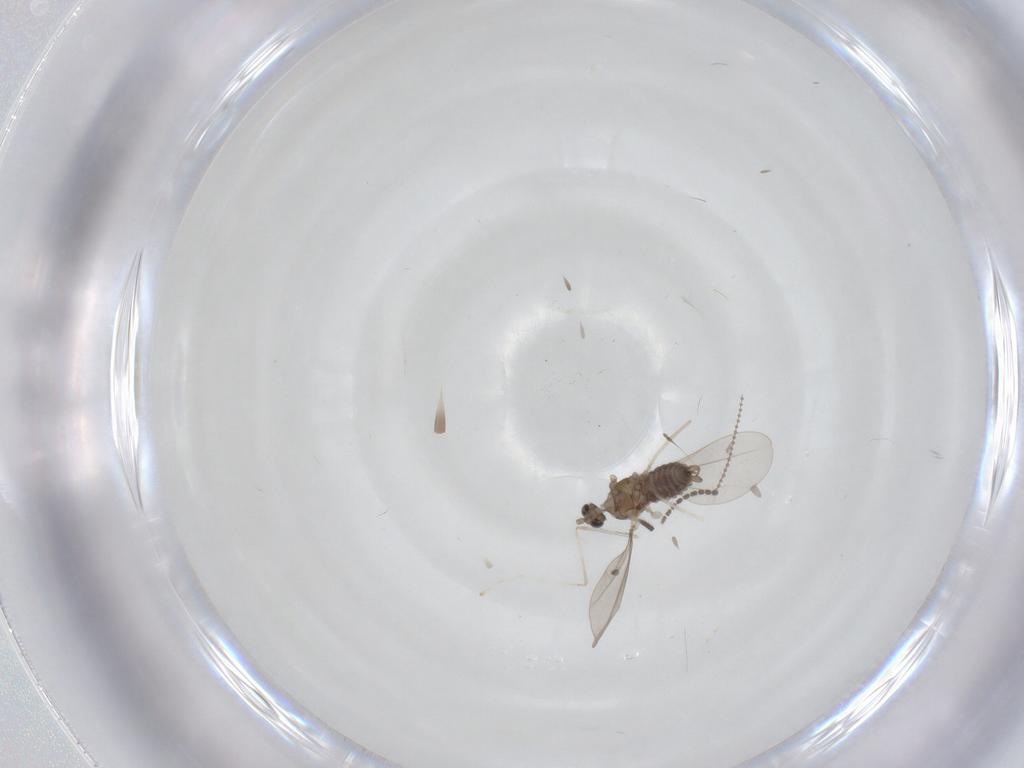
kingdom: Animalia
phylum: Arthropoda
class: Insecta
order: Diptera
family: Cecidomyiidae
